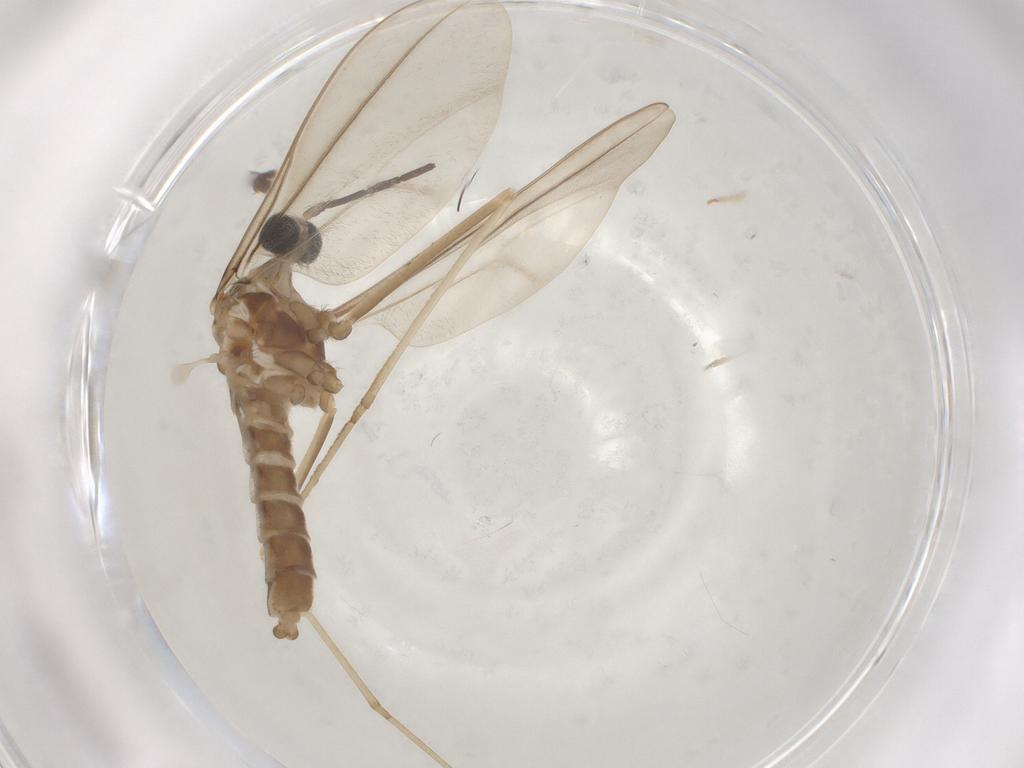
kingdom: Animalia
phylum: Arthropoda
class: Insecta
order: Diptera
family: Cecidomyiidae
